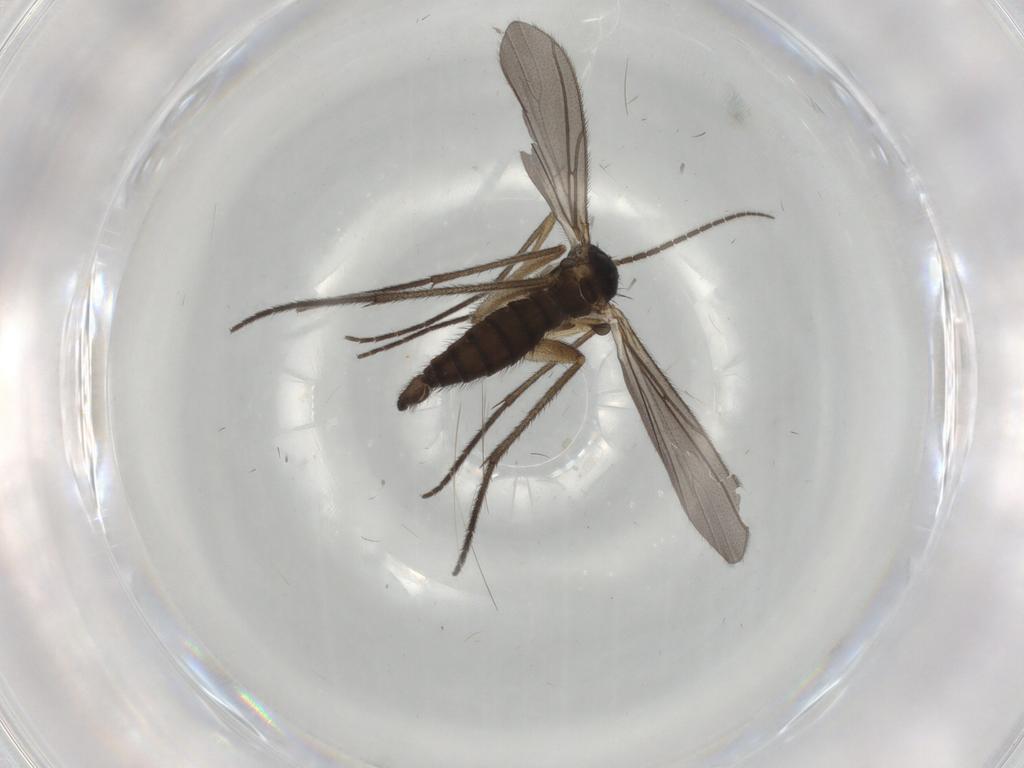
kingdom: Animalia
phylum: Arthropoda
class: Insecta
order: Diptera
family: Sciaridae
